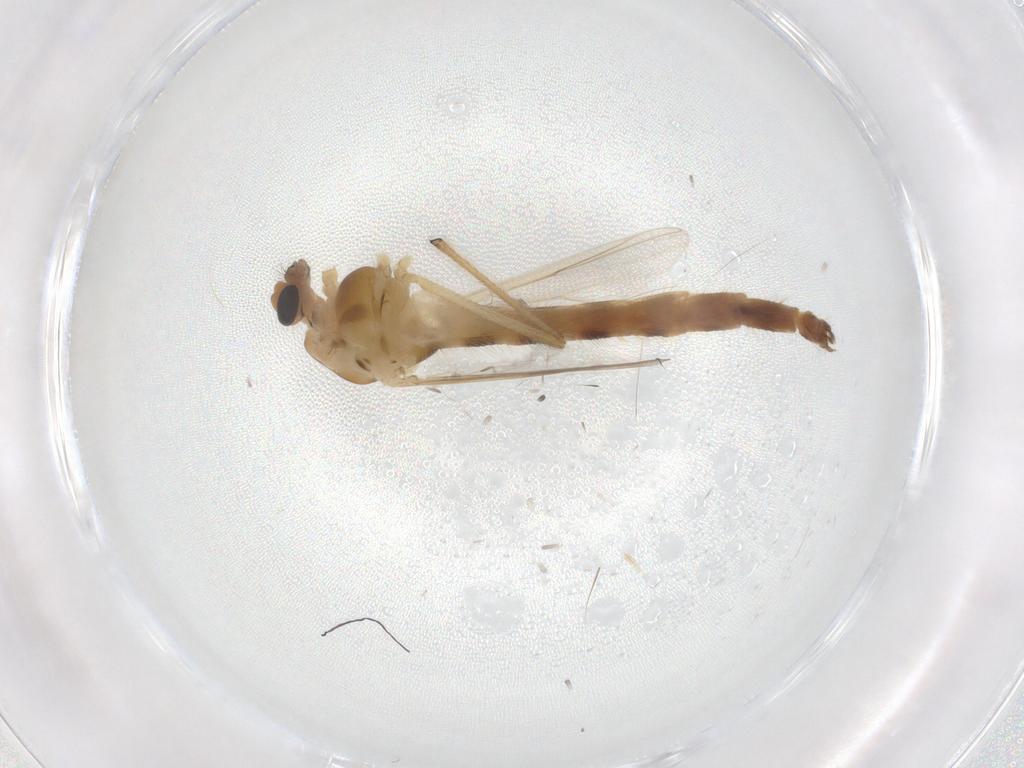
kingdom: Animalia
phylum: Arthropoda
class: Insecta
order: Diptera
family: Chironomidae
